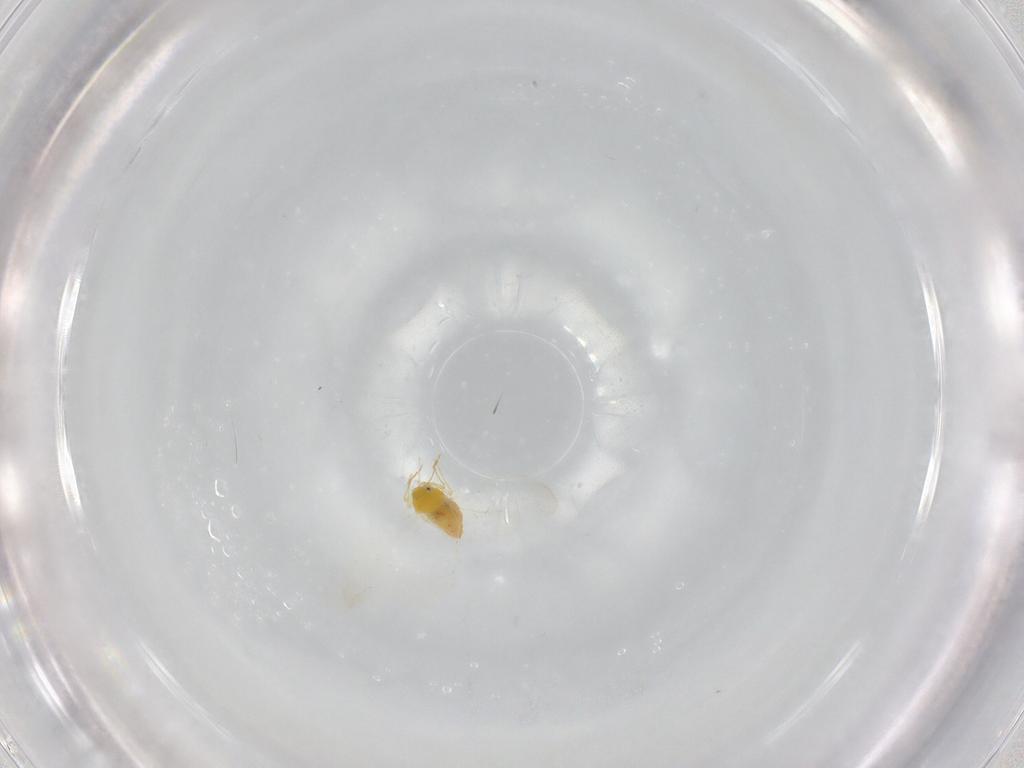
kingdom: Animalia
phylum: Arthropoda
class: Insecta
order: Hemiptera
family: Aleyrodidae
